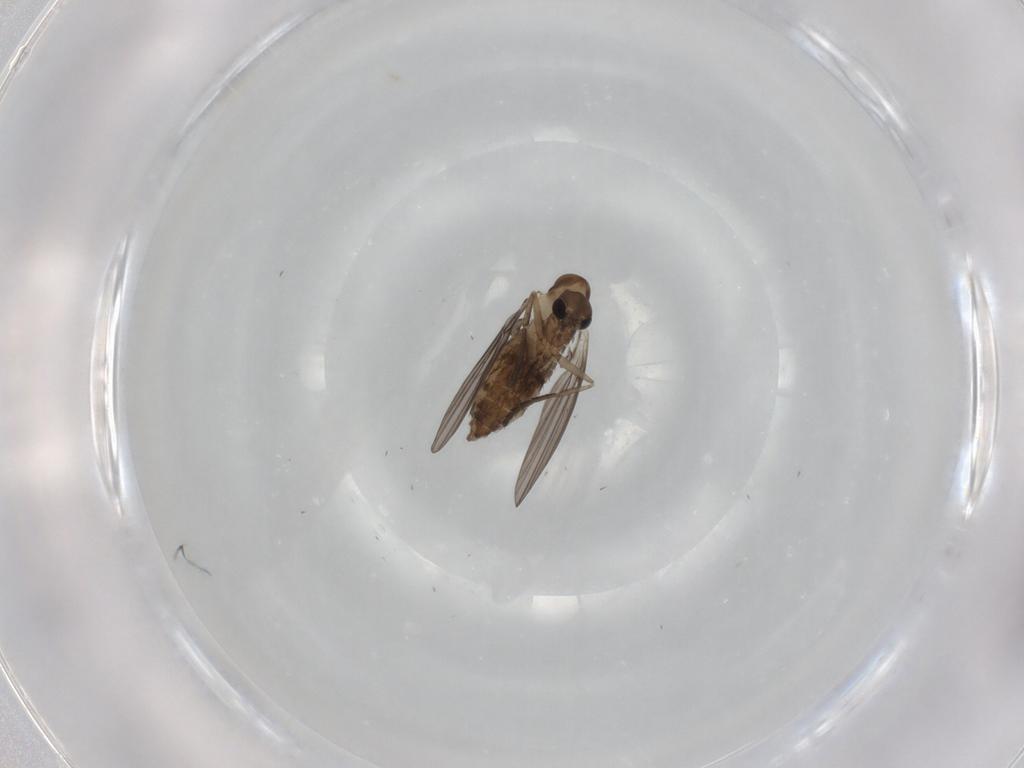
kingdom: Animalia
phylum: Arthropoda
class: Insecta
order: Diptera
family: Psychodidae
